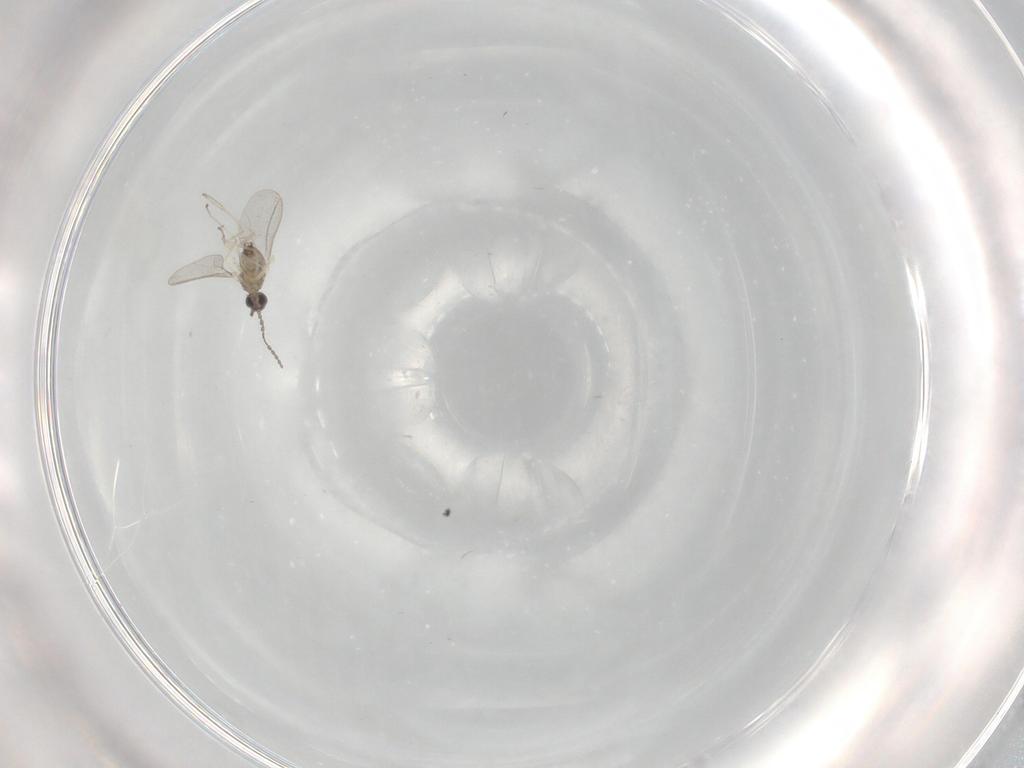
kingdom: Animalia
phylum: Arthropoda
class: Insecta
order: Diptera
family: Cecidomyiidae
